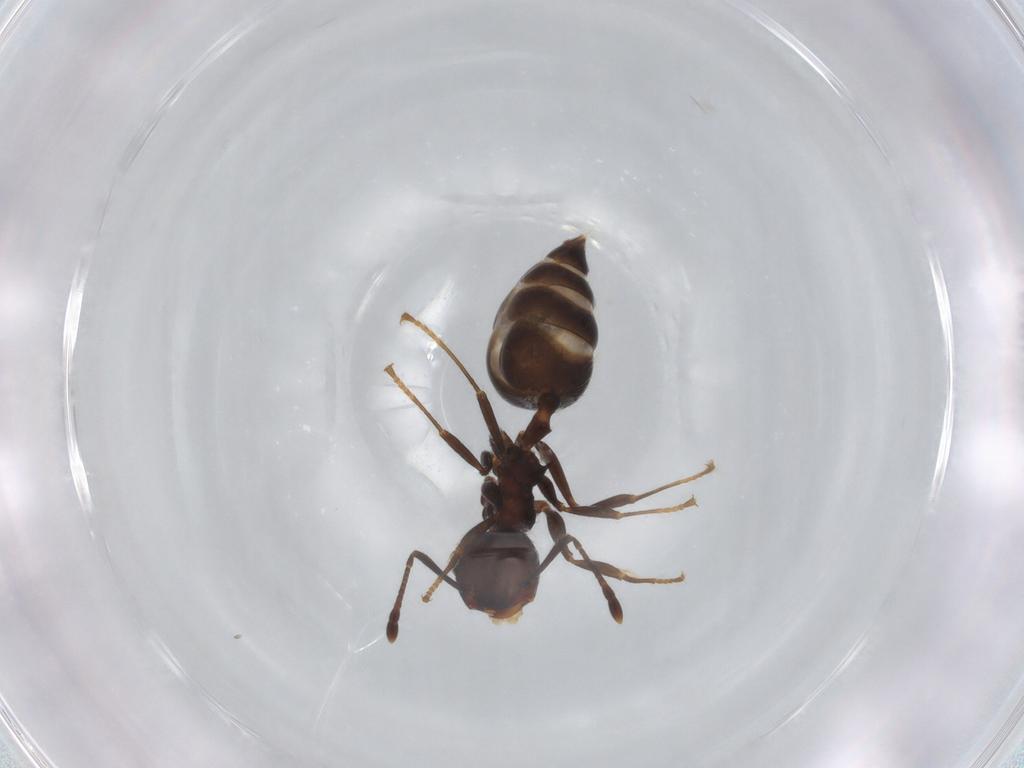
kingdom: Animalia
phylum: Arthropoda
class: Insecta
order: Hymenoptera
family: Formicidae
